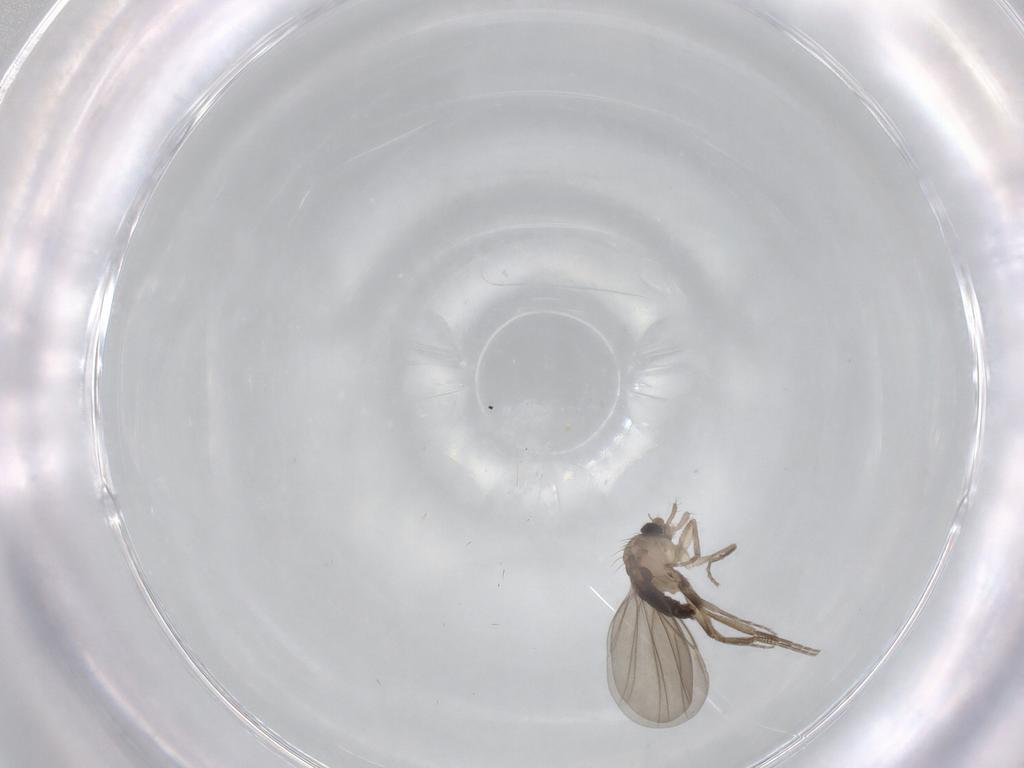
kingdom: Animalia
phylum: Arthropoda
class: Insecta
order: Diptera
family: Phoridae
